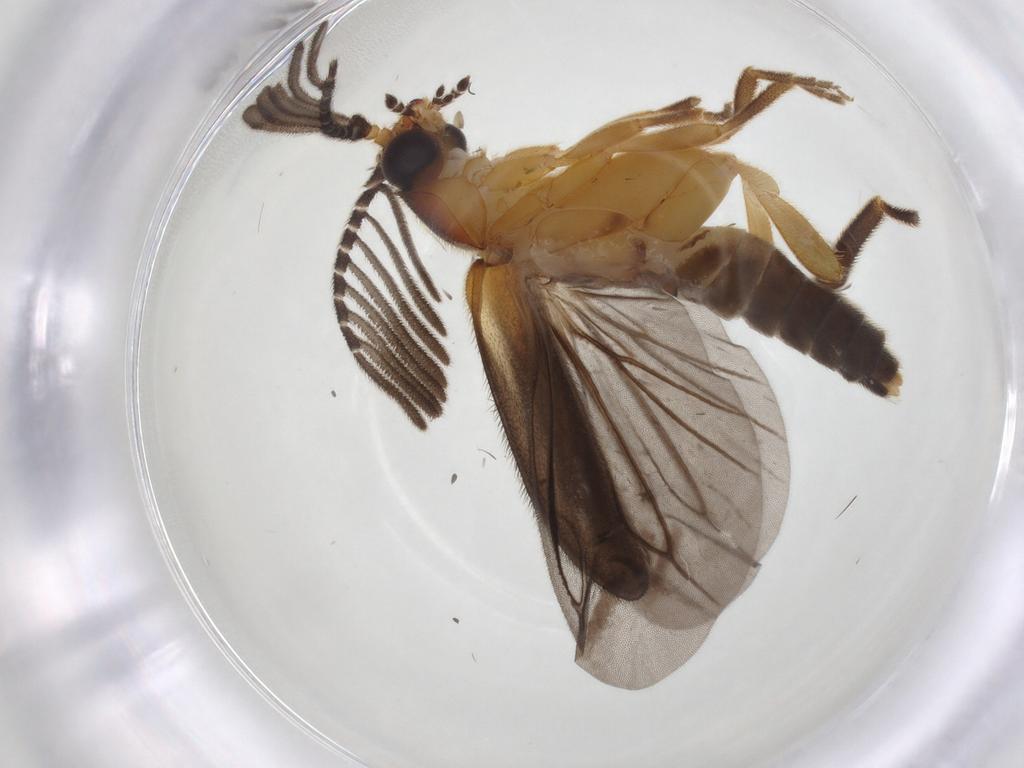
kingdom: Animalia
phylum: Arthropoda
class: Insecta
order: Coleoptera
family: Lampyridae
